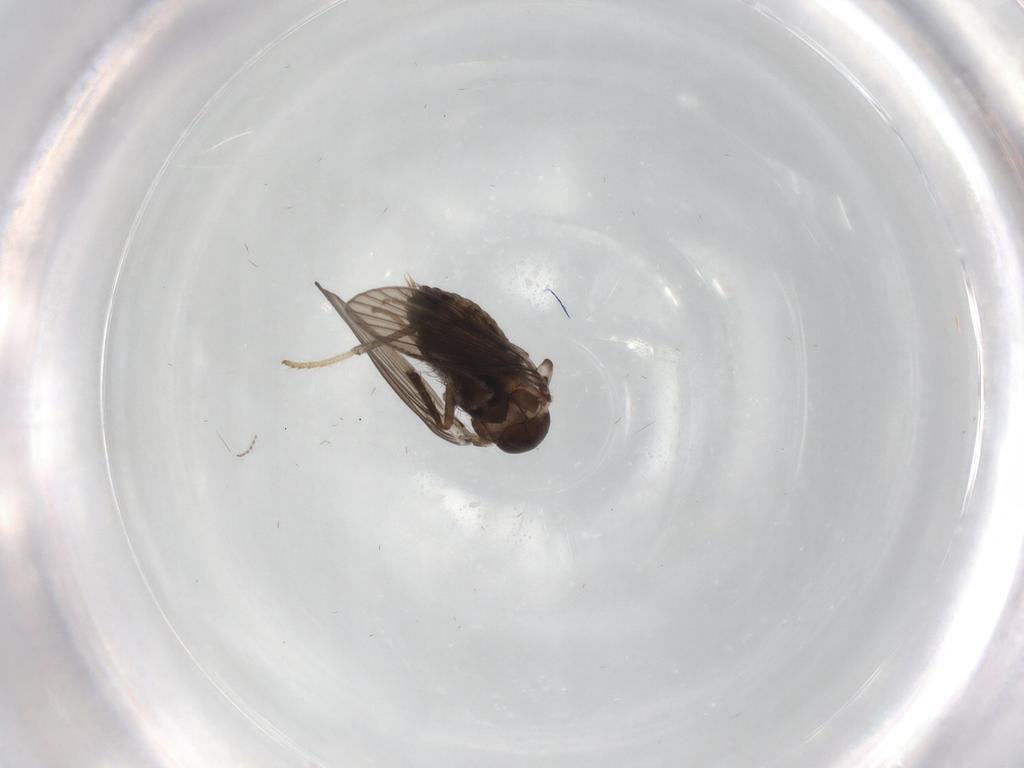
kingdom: Animalia
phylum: Arthropoda
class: Insecta
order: Diptera
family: Psychodidae
